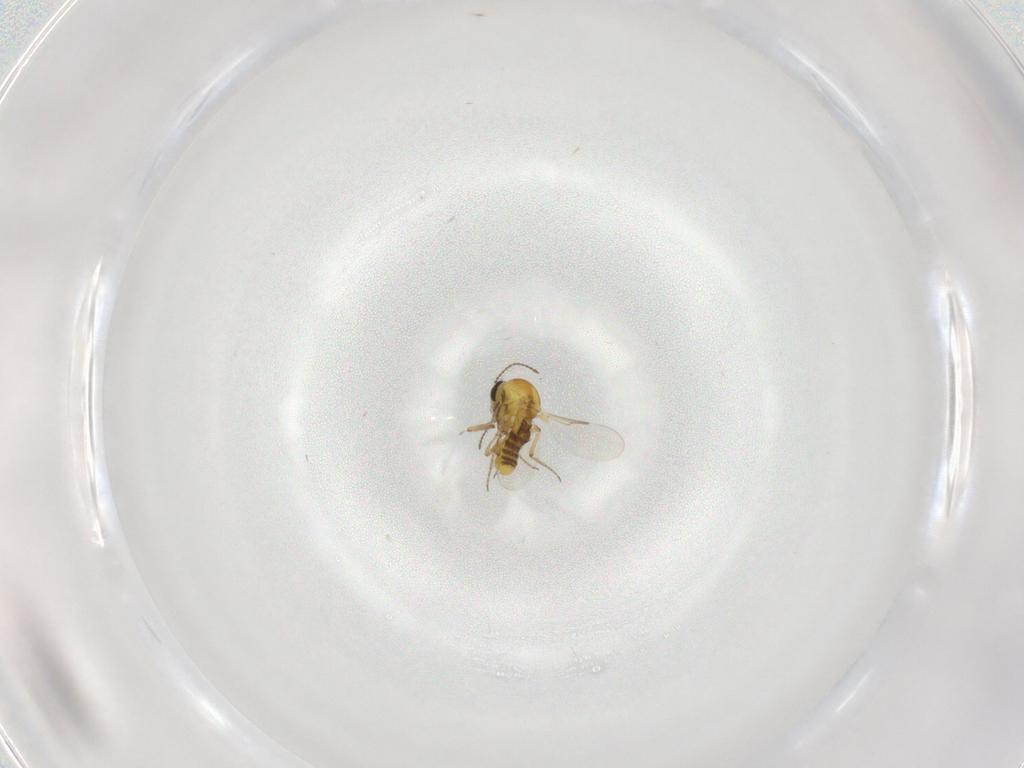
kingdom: Animalia
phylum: Arthropoda
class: Insecta
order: Diptera
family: Ceratopogonidae
